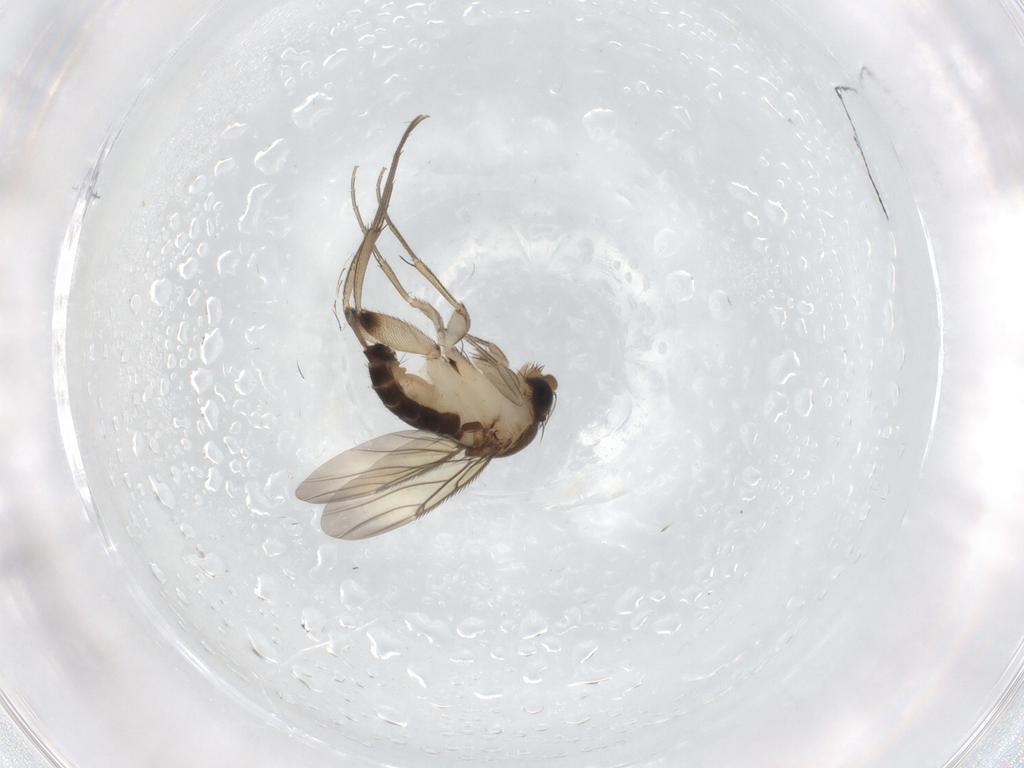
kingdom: Animalia
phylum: Arthropoda
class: Insecta
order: Diptera
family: Phoridae
